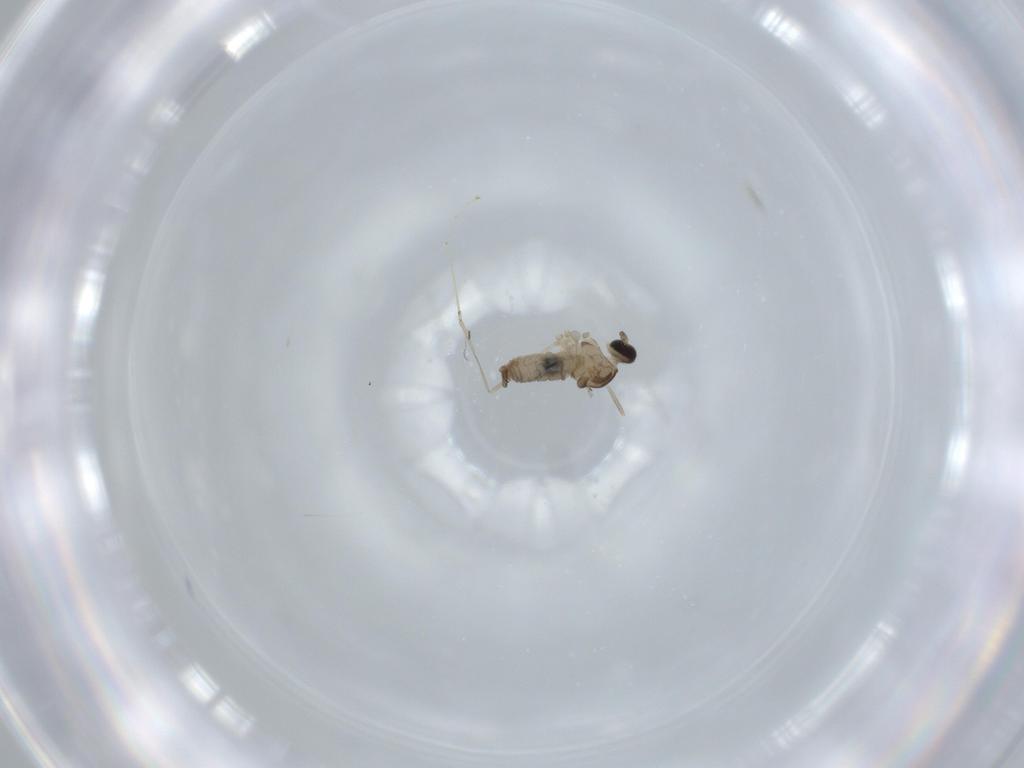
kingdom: Animalia
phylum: Arthropoda
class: Insecta
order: Diptera
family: Cecidomyiidae
